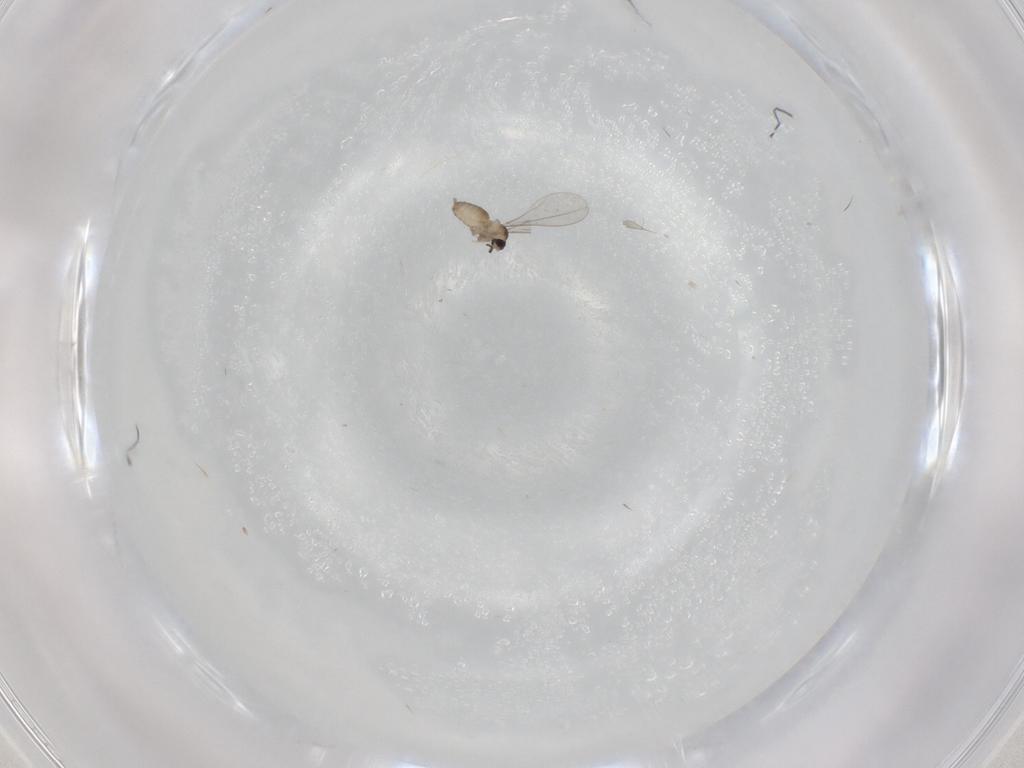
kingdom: Animalia
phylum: Arthropoda
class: Insecta
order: Diptera
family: Cecidomyiidae
